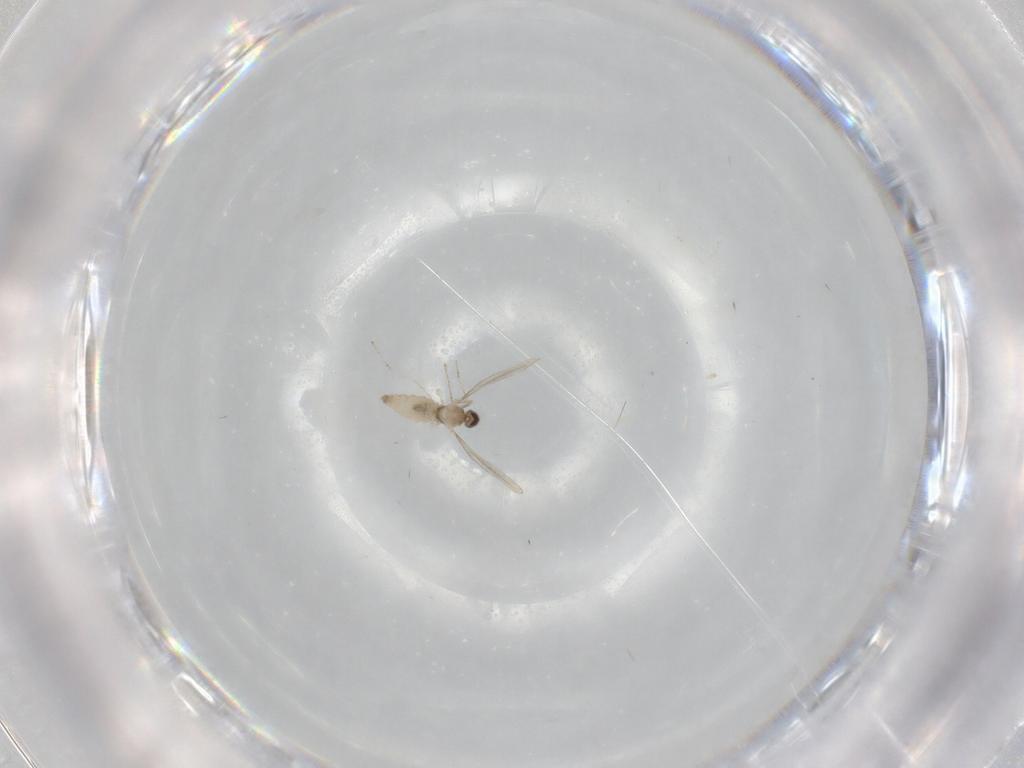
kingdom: Animalia
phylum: Arthropoda
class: Insecta
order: Diptera
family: Cecidomyiidae
